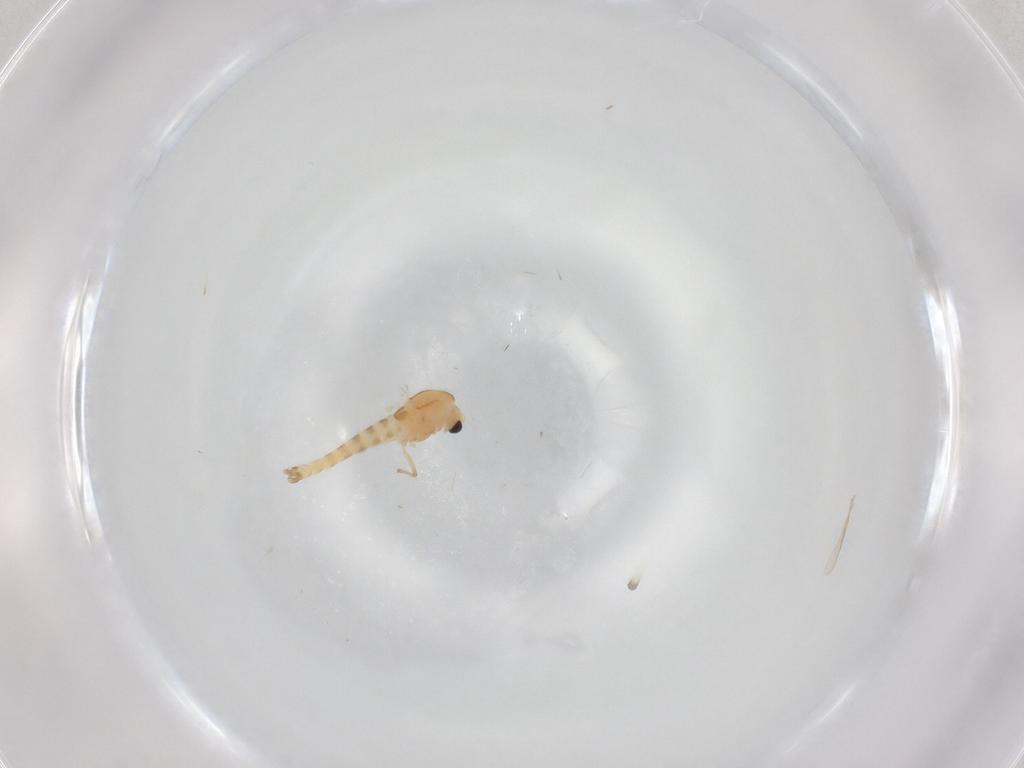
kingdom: Animalia
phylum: Arthropoda
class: Insecta
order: Diptera
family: Chironomidae
